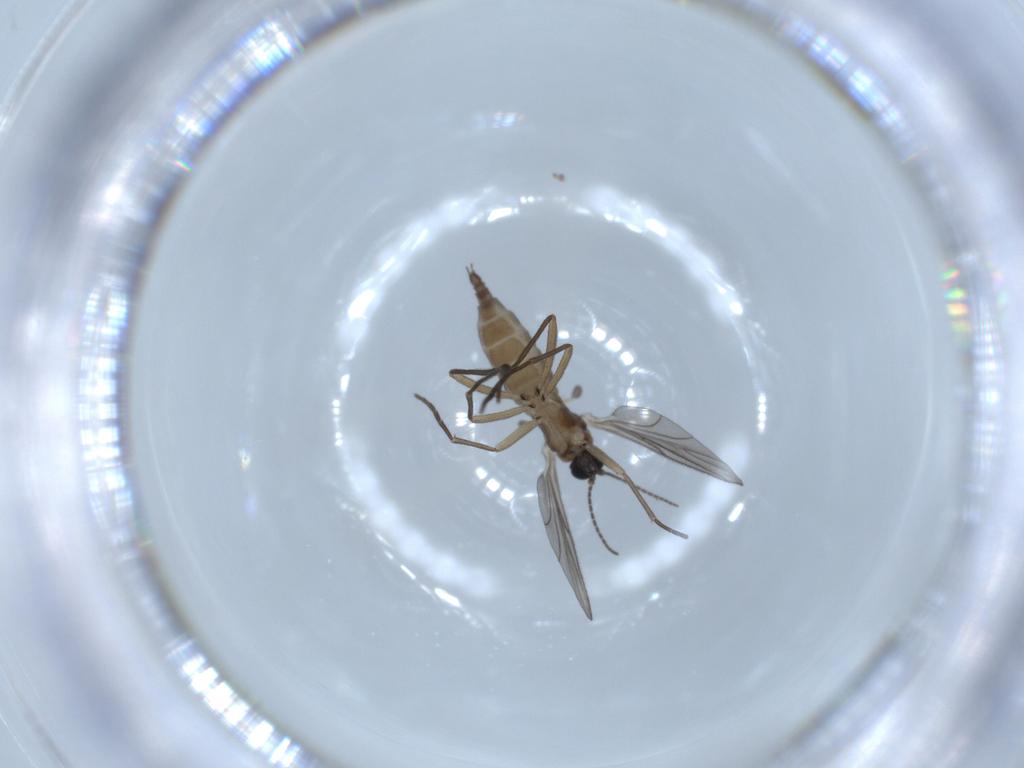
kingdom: Animalia
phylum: Arthropoda
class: Insecta
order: Diptera
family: Sciaridae
